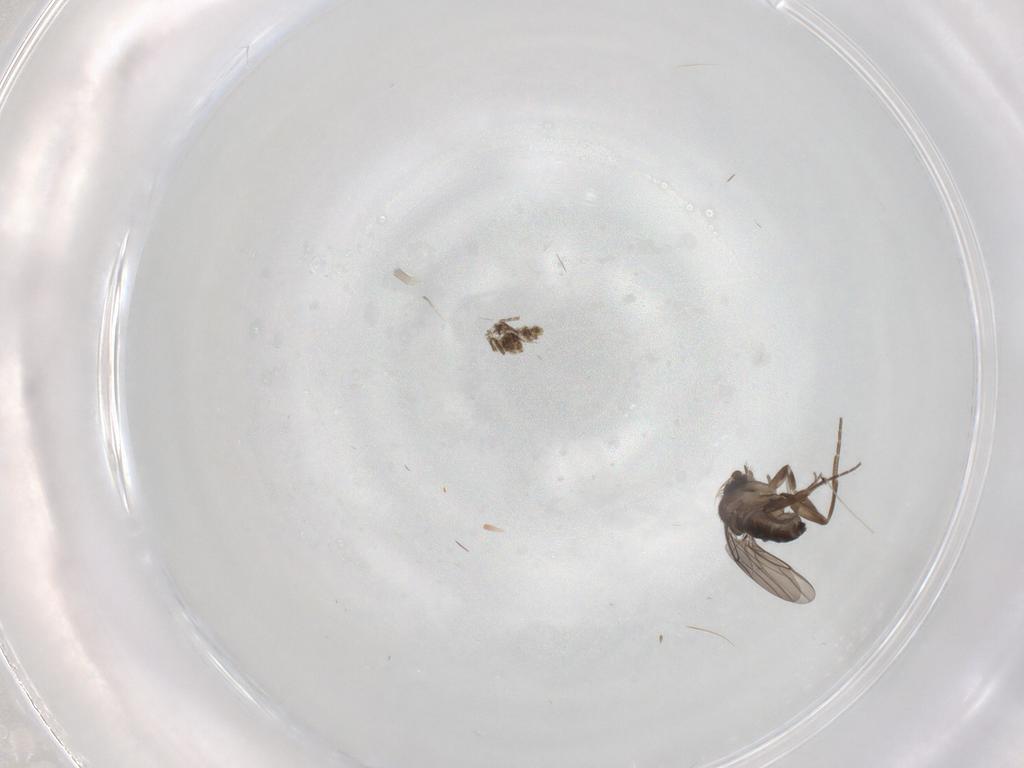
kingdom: Animalia
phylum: Arthropoda
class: Insecta
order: Diptera
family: Phoridae
